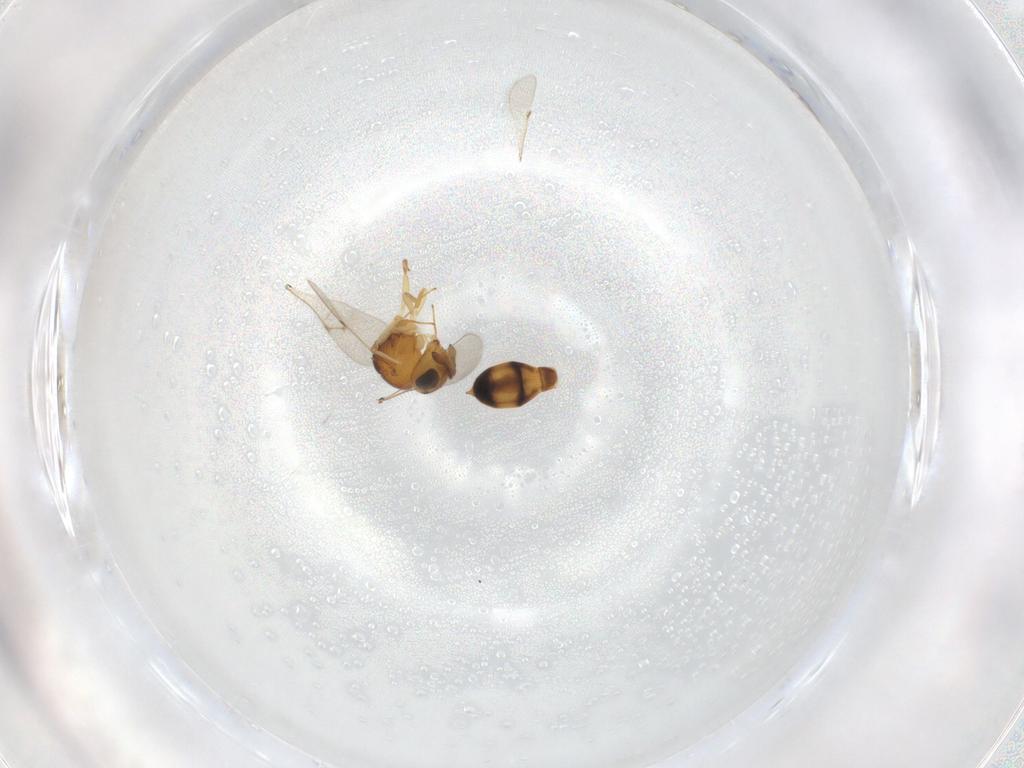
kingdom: Animalia
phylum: Arthropoda
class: Insecta
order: Hymenoptera
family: Scelionidae
